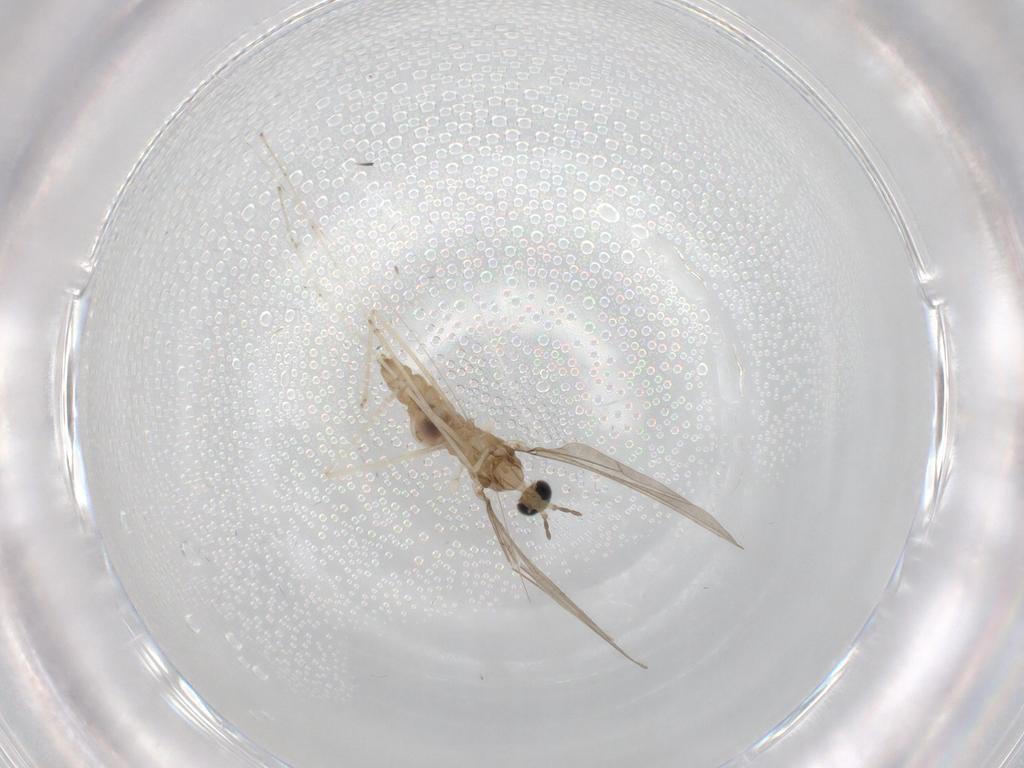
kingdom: Animalia
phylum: Arthropoda
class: Insecta
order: Diptera
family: Cecidomyiidae
